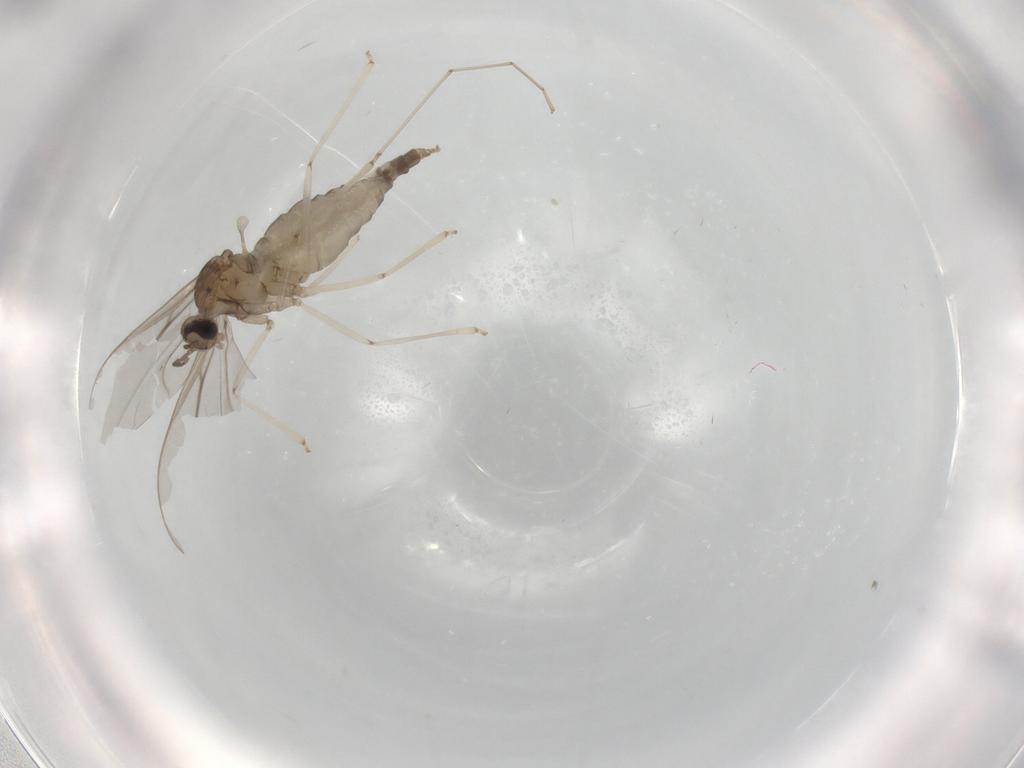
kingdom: Animalia
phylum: Arthropoda
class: Insecta
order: Diptera
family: Cecidomyiidae
